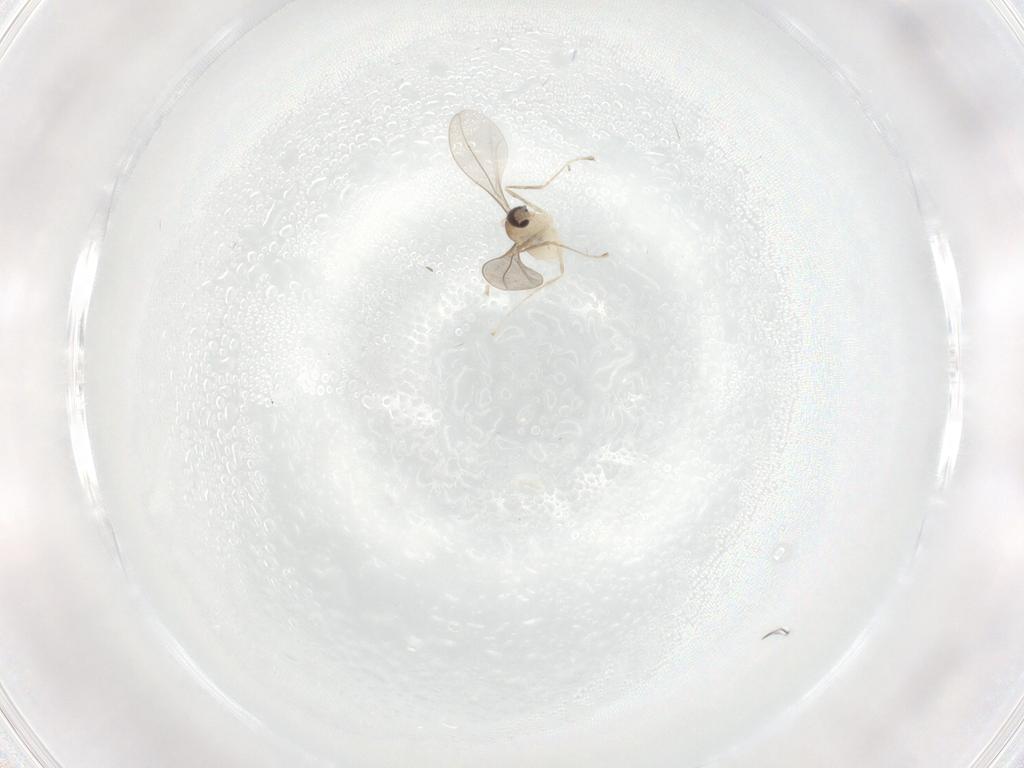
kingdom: Animalia
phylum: Arthropoda
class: Insecta
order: Diptera
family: Cecidomyiidae
